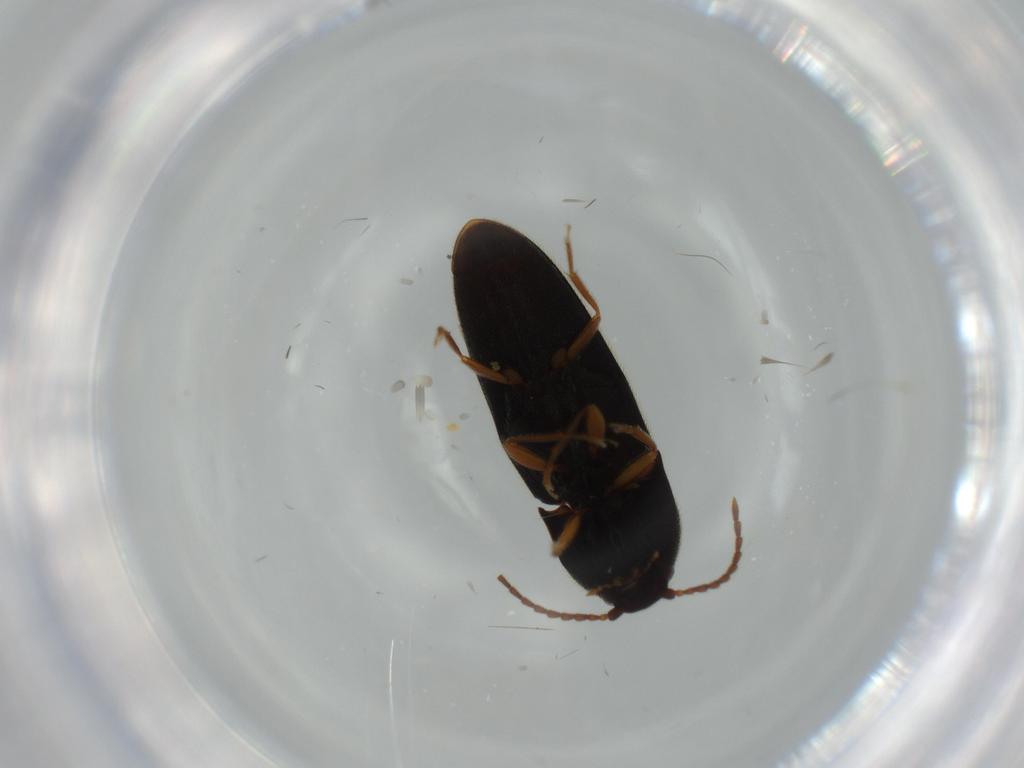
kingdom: Animalia
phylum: Arthropoda
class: Insecta
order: Coleoptera
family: Elateridae
